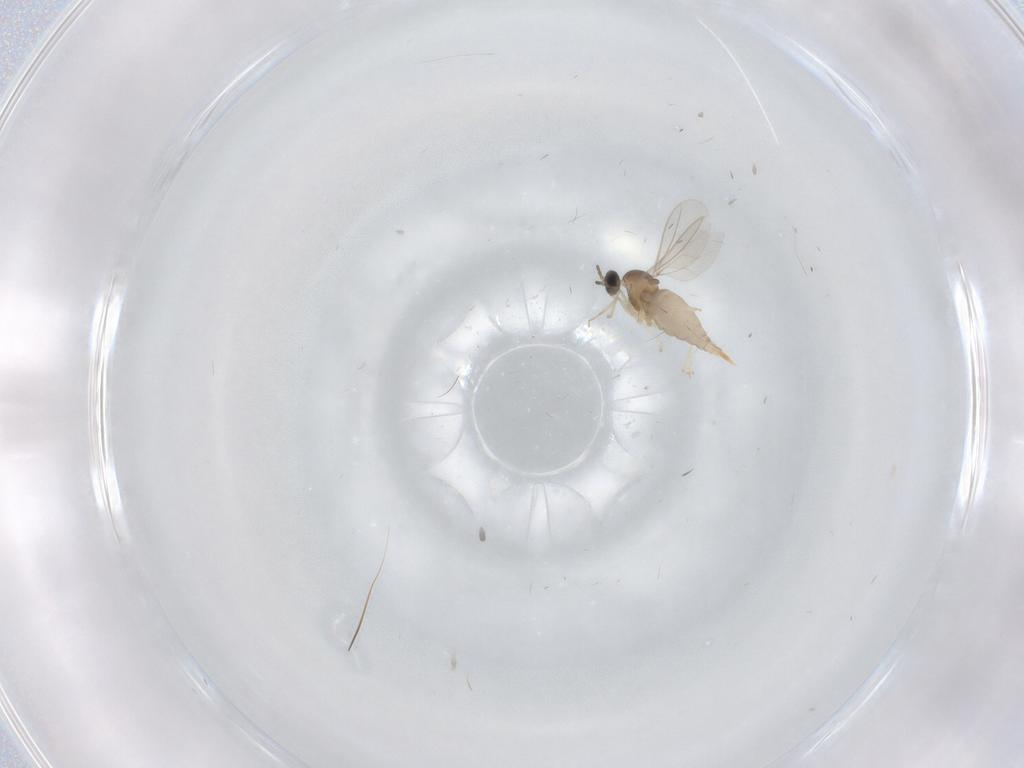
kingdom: Animalia
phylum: Arthropoda
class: Insecta
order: Diptera
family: Cecidomyiidae
